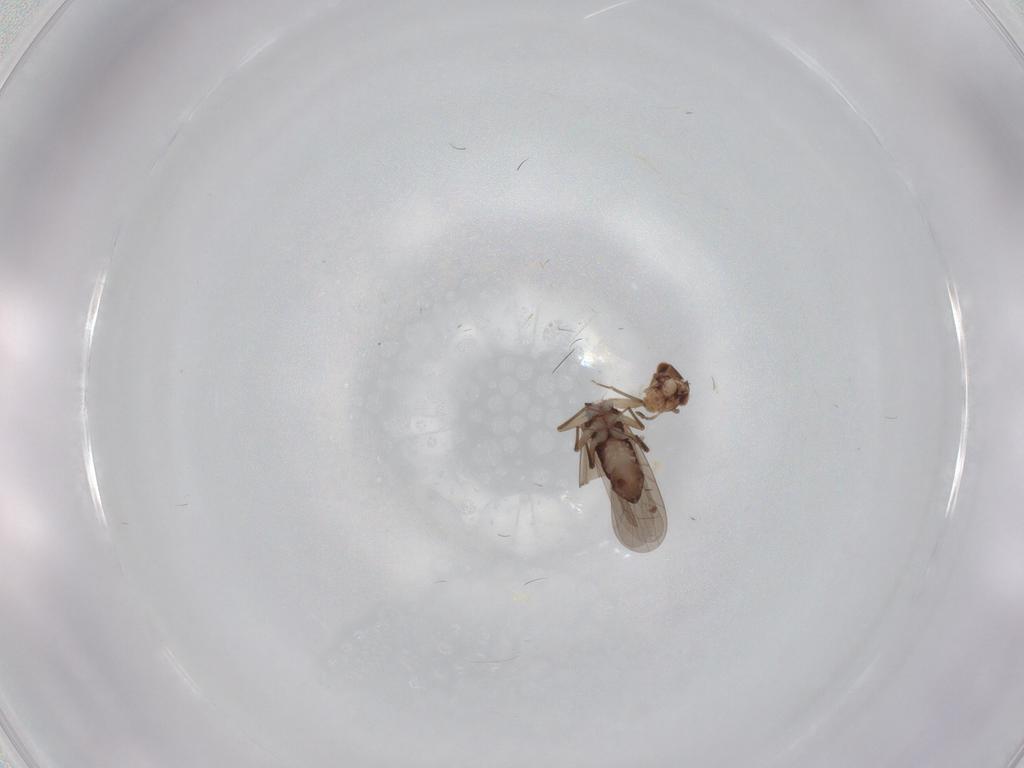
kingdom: Animalia
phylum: Arthropoda
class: Insecta
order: Psocodea
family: Lepidopsocidae
